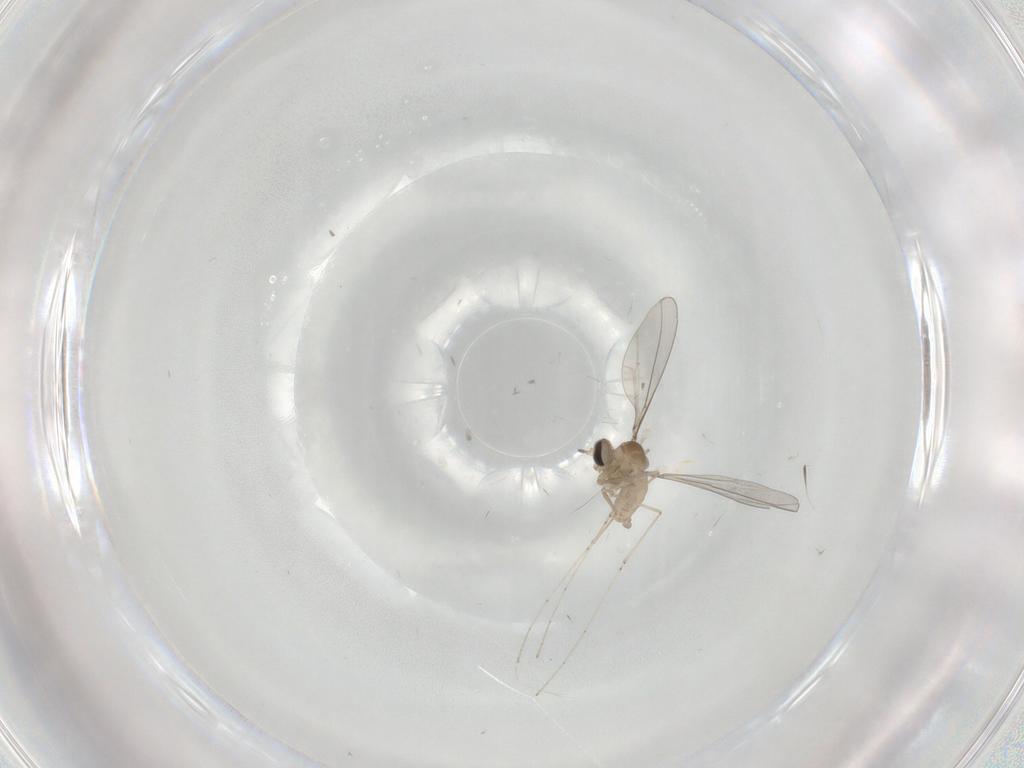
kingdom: Animalia
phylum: Arthropoda
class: Insecta
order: Diptera
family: Cecidomyiidae
